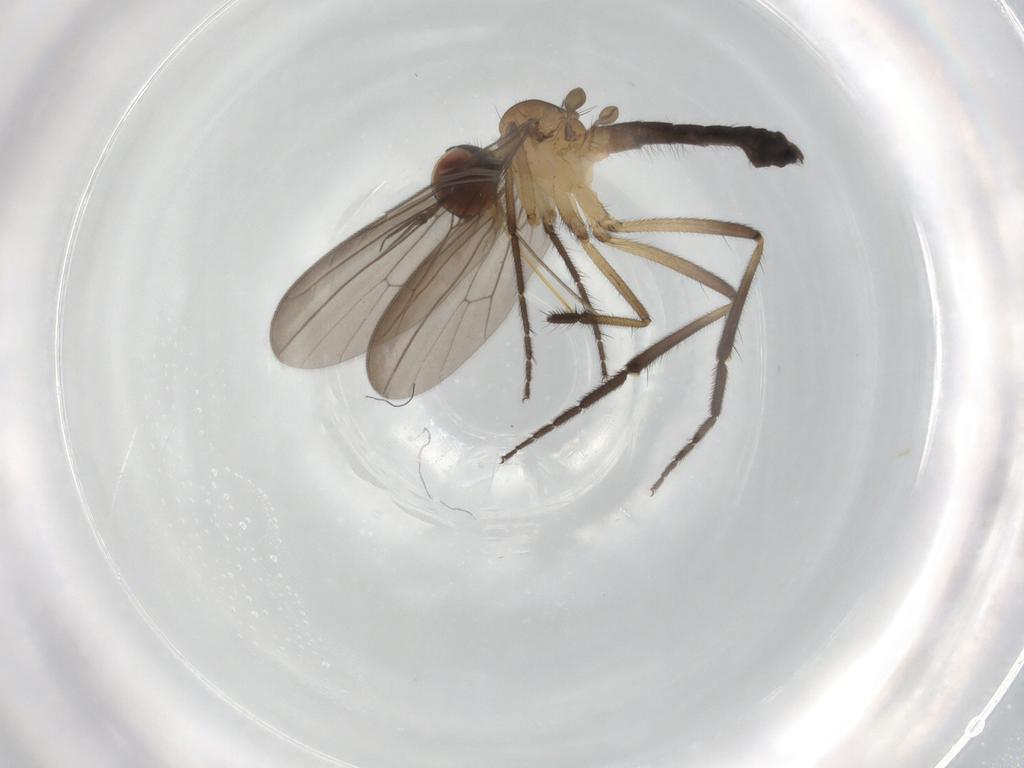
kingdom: Animalia
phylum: Arthropoda
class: Insecta
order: Diptera
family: Empididae
